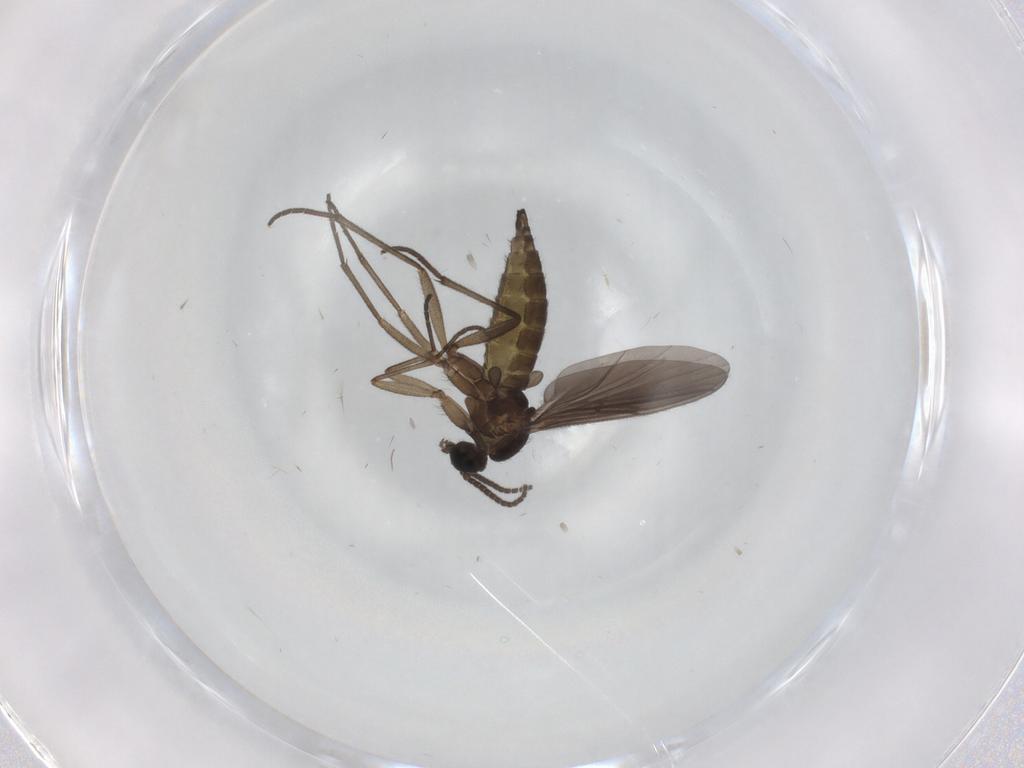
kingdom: Animalia
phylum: Arthropoda
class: Insecta
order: Diptera
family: Sciaridae
